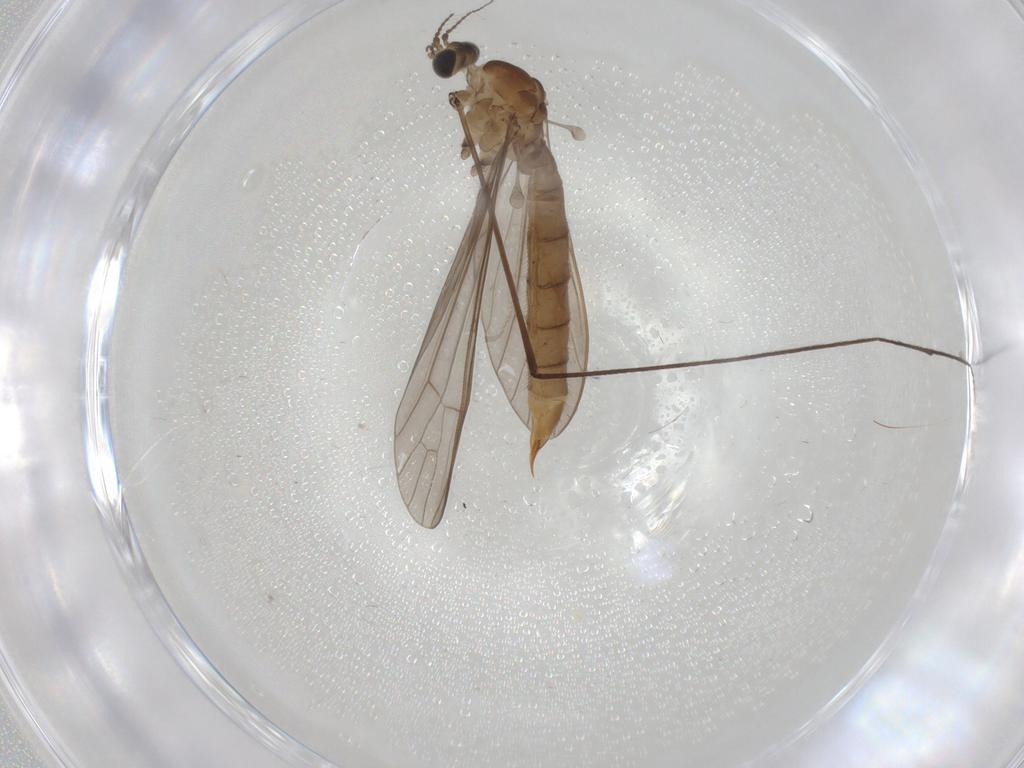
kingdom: Animalia
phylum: Arthropoda
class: Insecta
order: Diptera
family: Limoniidae
